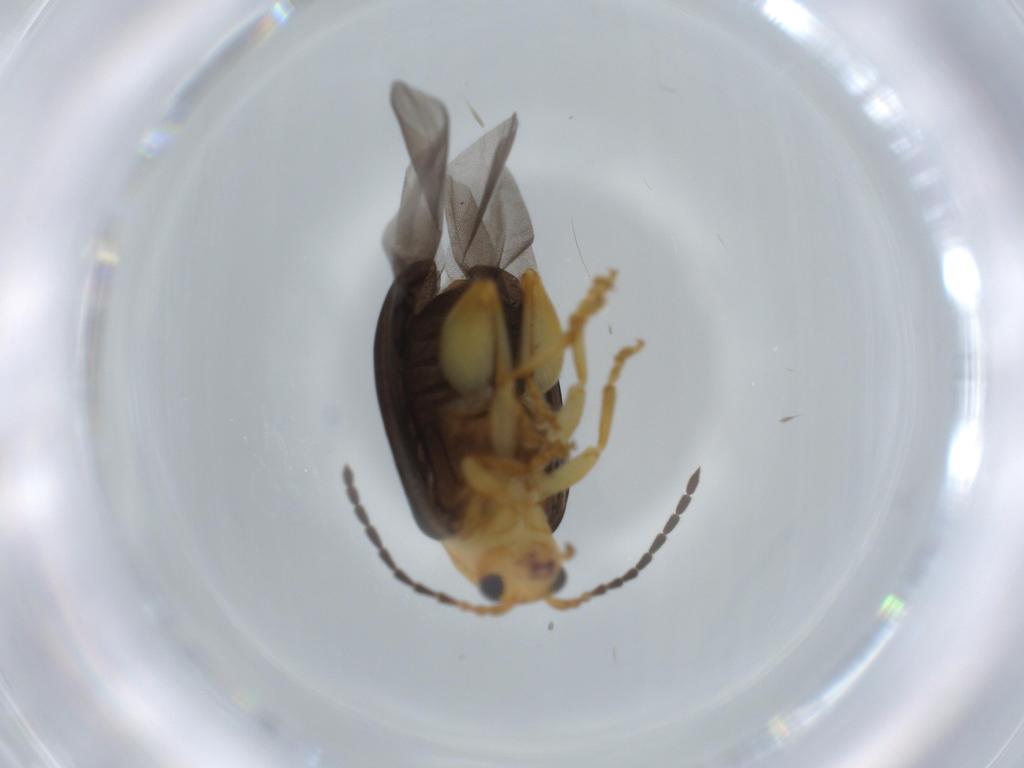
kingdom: Animalia
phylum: Arthropoda
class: Insecta
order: Coleoptera
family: Chrysomelidae
